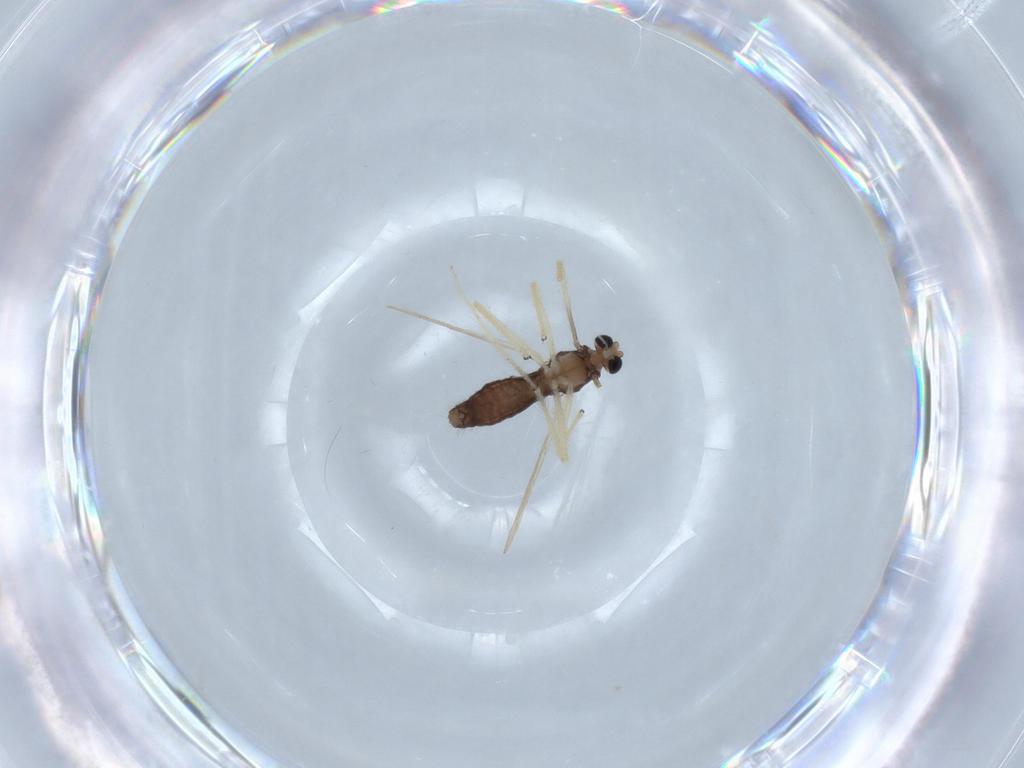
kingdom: Animalia
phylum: Arthropoda
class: Insecta
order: Diptera
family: Chironomidae
